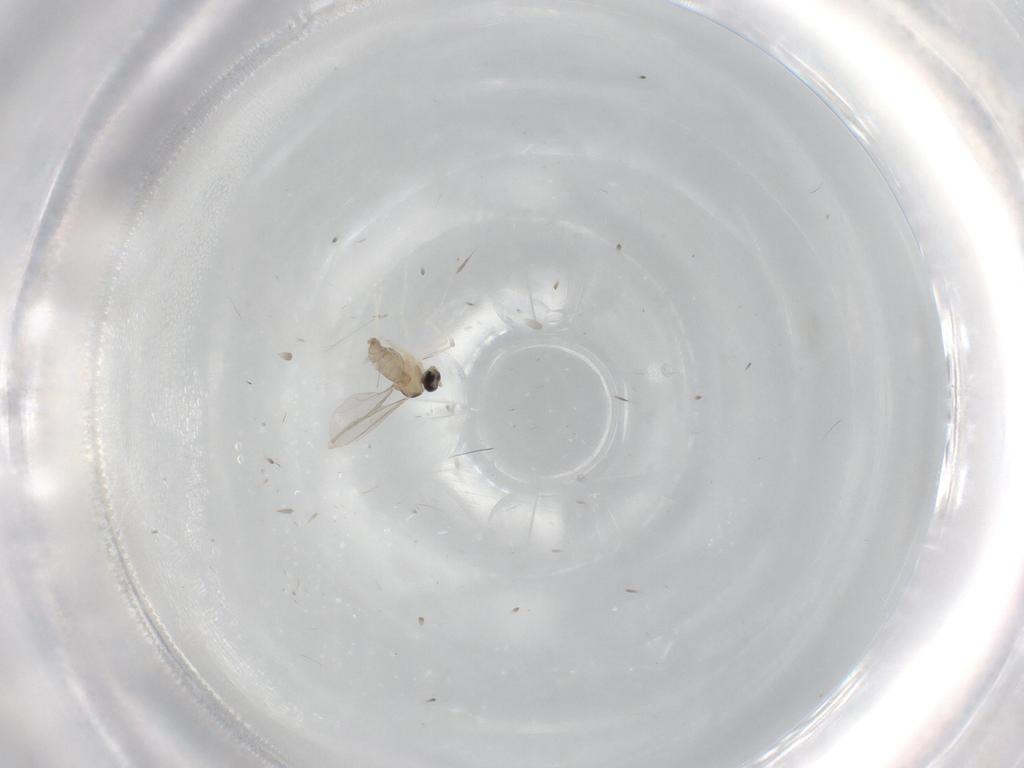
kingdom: Animalia
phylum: Arthropoda
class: Insecta
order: Diptera
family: Cecidomyiidae
